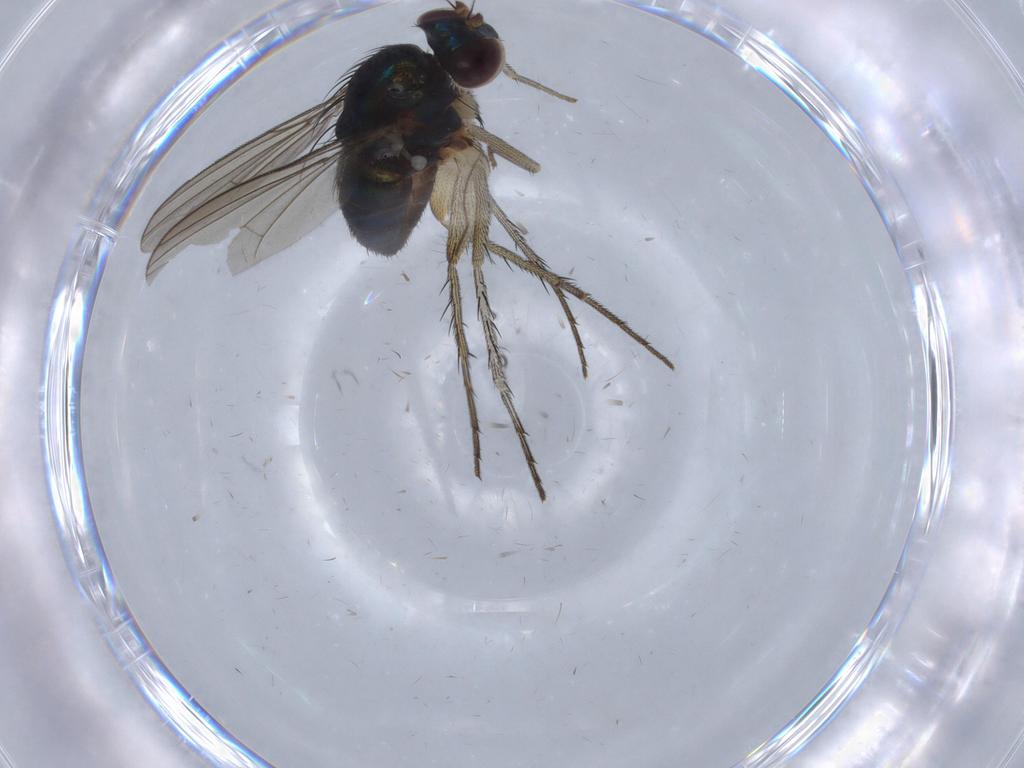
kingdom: Animalia
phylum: Arthropoda
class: Insecta
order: Diptera
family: Dolichopodidae
